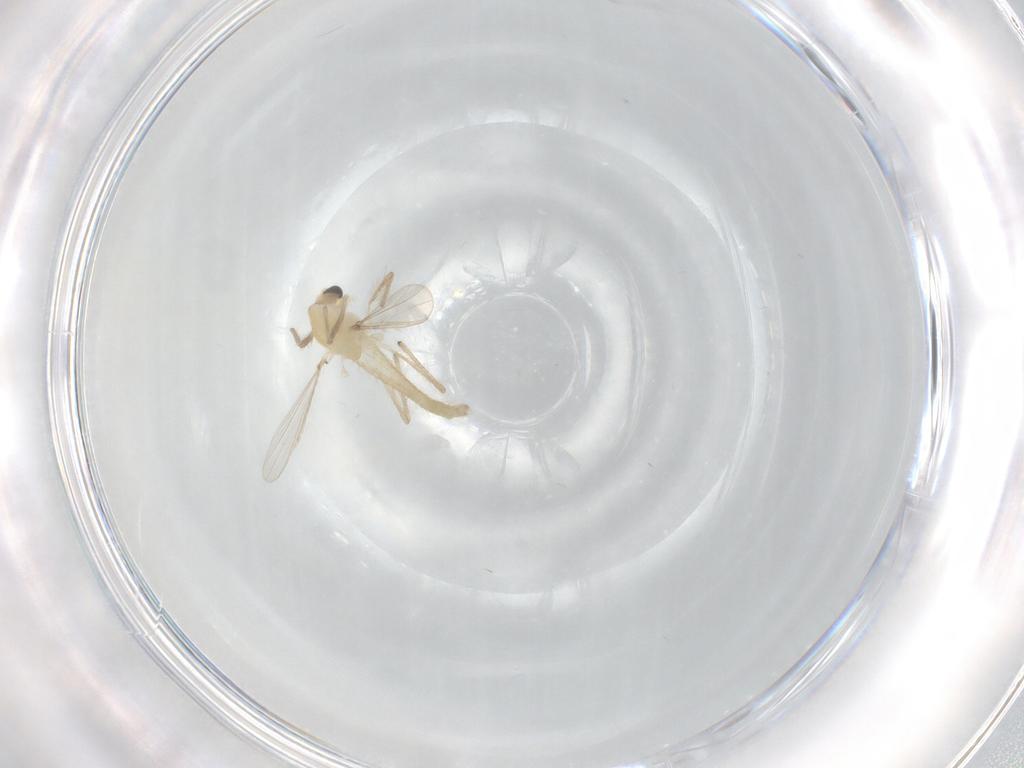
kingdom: Animalia
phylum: Arthropoda
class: Insecta
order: Diptera
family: Chironomidae
